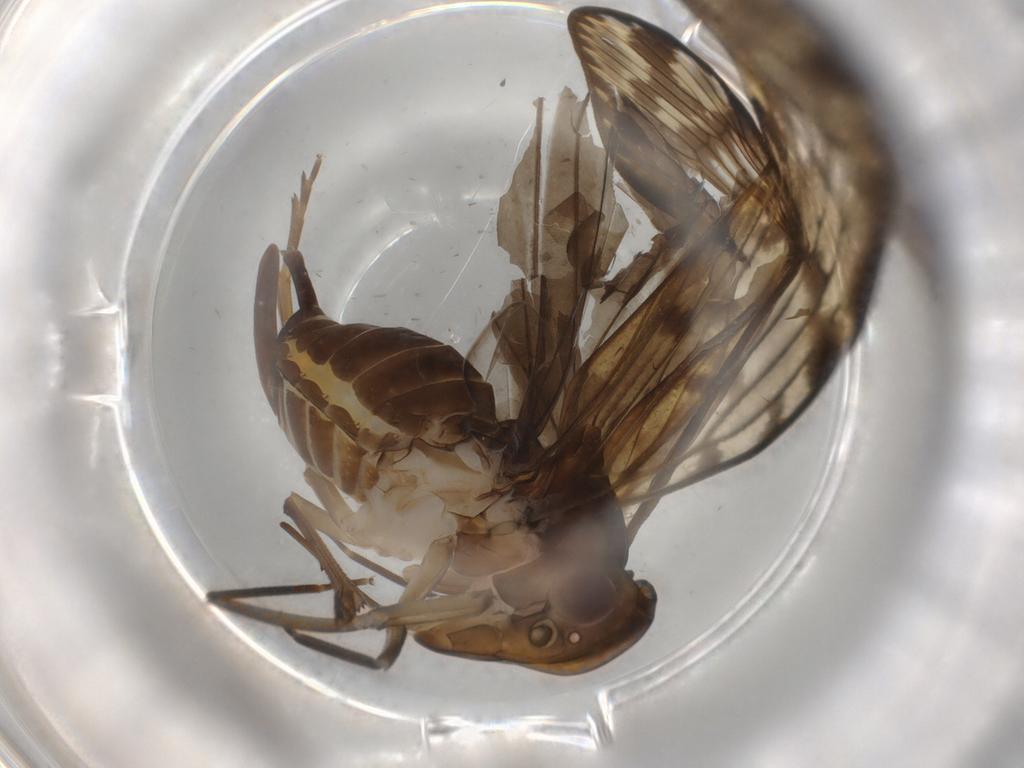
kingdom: Animalia
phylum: Arthropoda
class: Insecta
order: Hemiptera
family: Cixiidae
